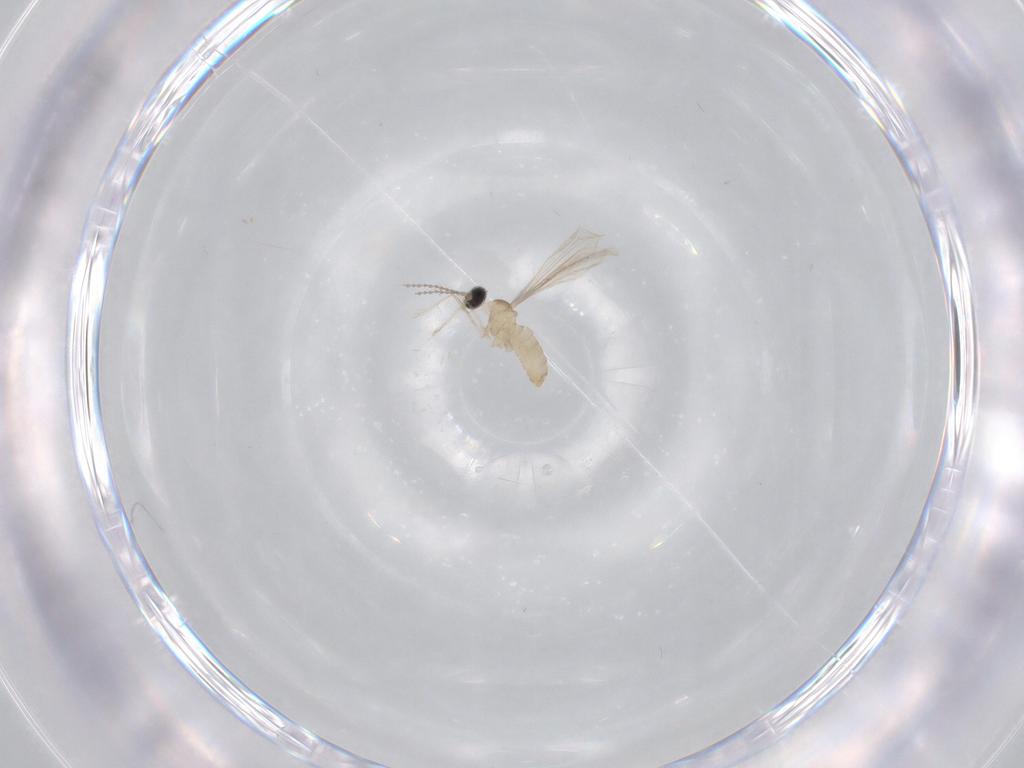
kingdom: Animalia
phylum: Arthropoda
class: Insecta
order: Diptera
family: Cecidomyiidae
